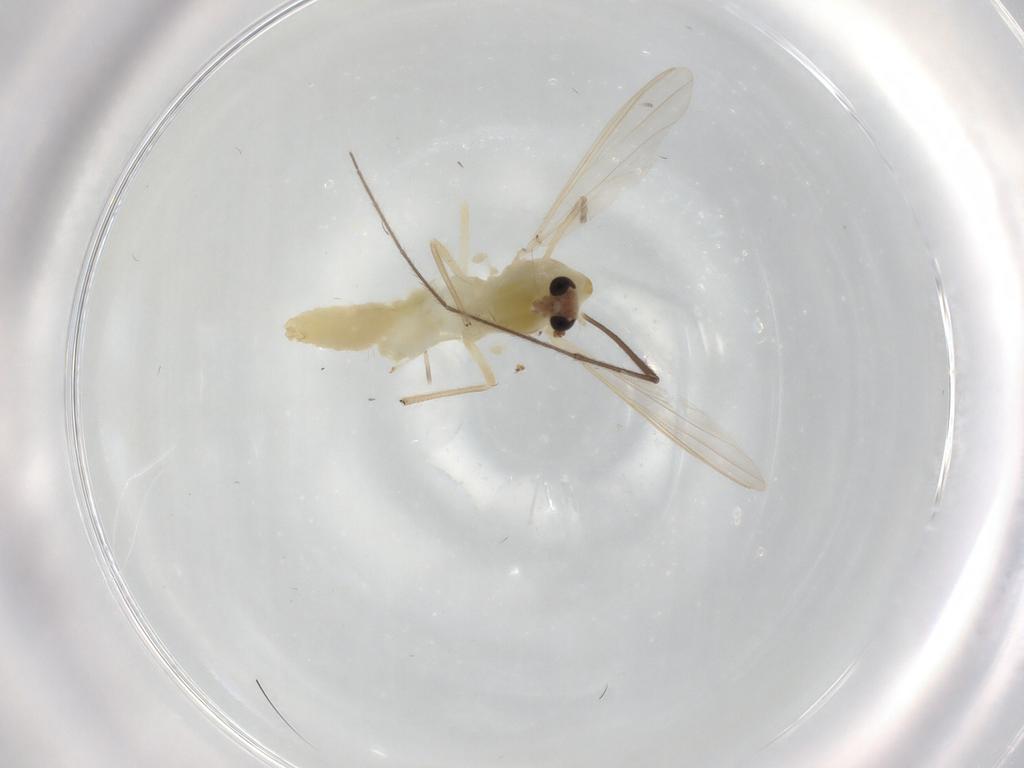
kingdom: Animalia
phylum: Arthropoda
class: Insecta
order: Diptera
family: Chironomidae
